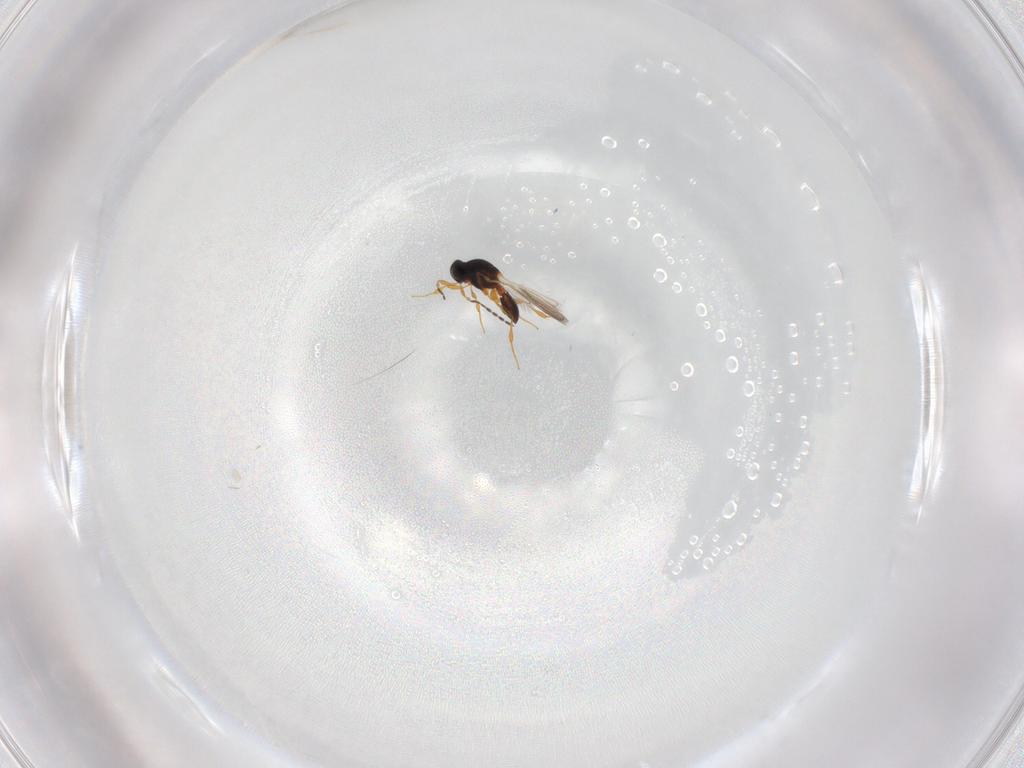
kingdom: Animalia
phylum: Arthropoda
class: Insecta
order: Hymenoptera
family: Platygastridae
